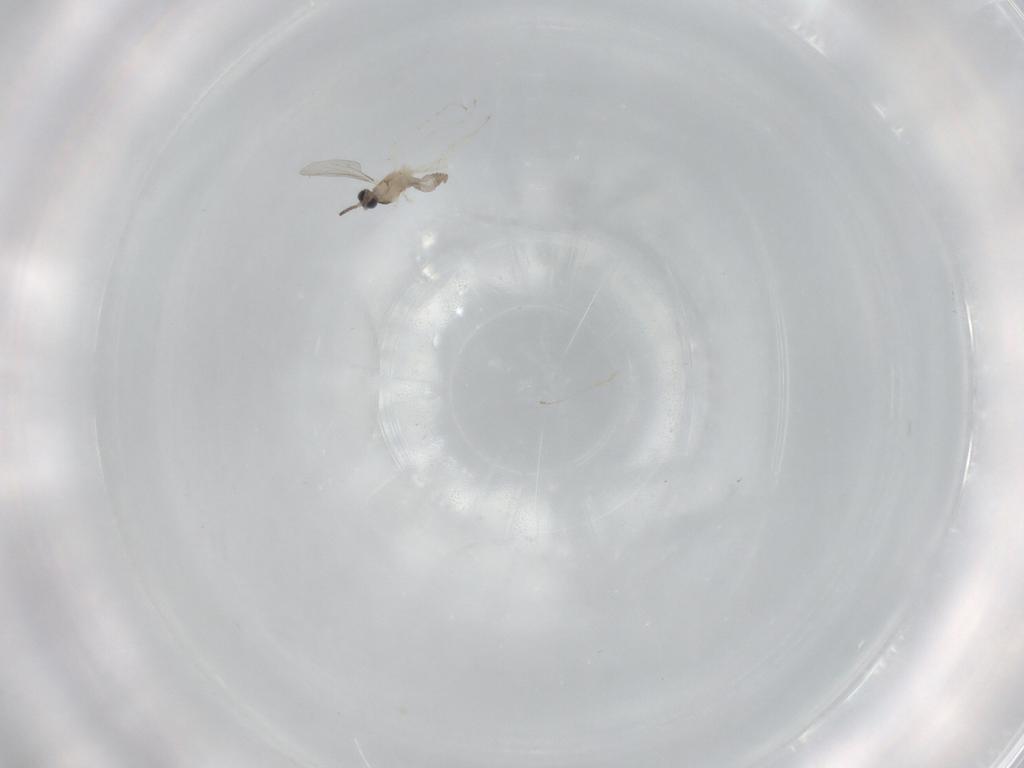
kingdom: Animalia
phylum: Arthropoda
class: Insecta
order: Diptera
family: Cecidomyiidae
